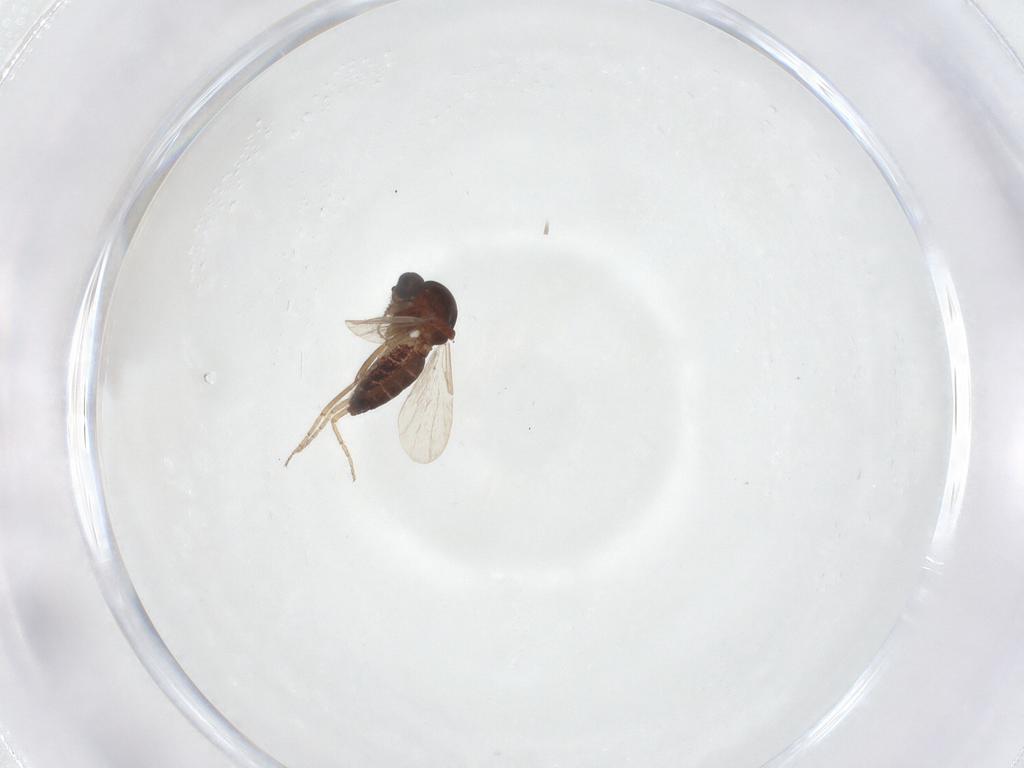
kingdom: Animalia
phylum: Arthropoda
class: Insecta
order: Diptera
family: Ceratopogonidae
